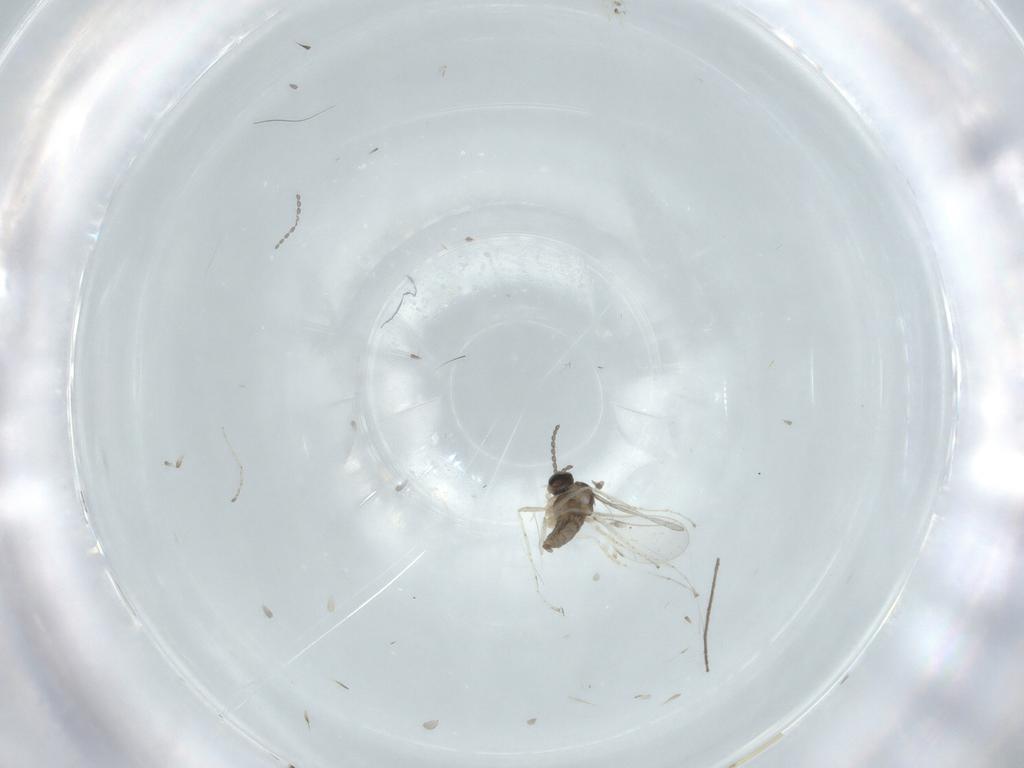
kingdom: Animalia
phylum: Arthropoda
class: Insecta
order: Diptera
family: Cecidomyiidae
